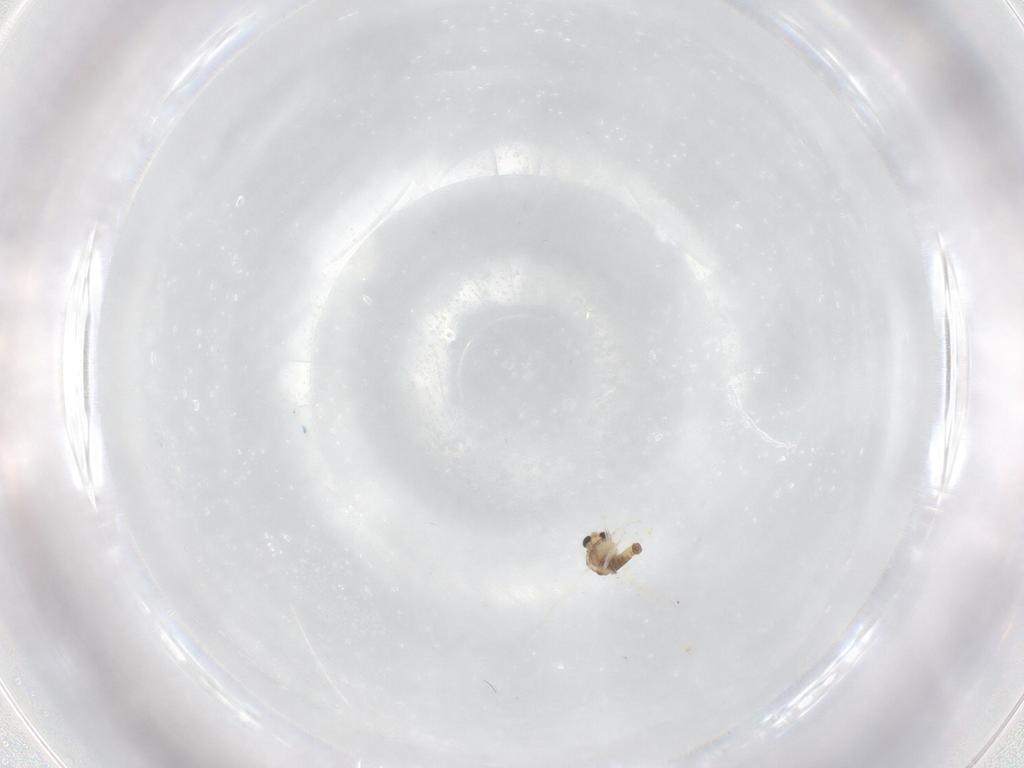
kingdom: Animalia
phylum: Arthropoda
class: Insecta
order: Diptera
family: Chironomidae
